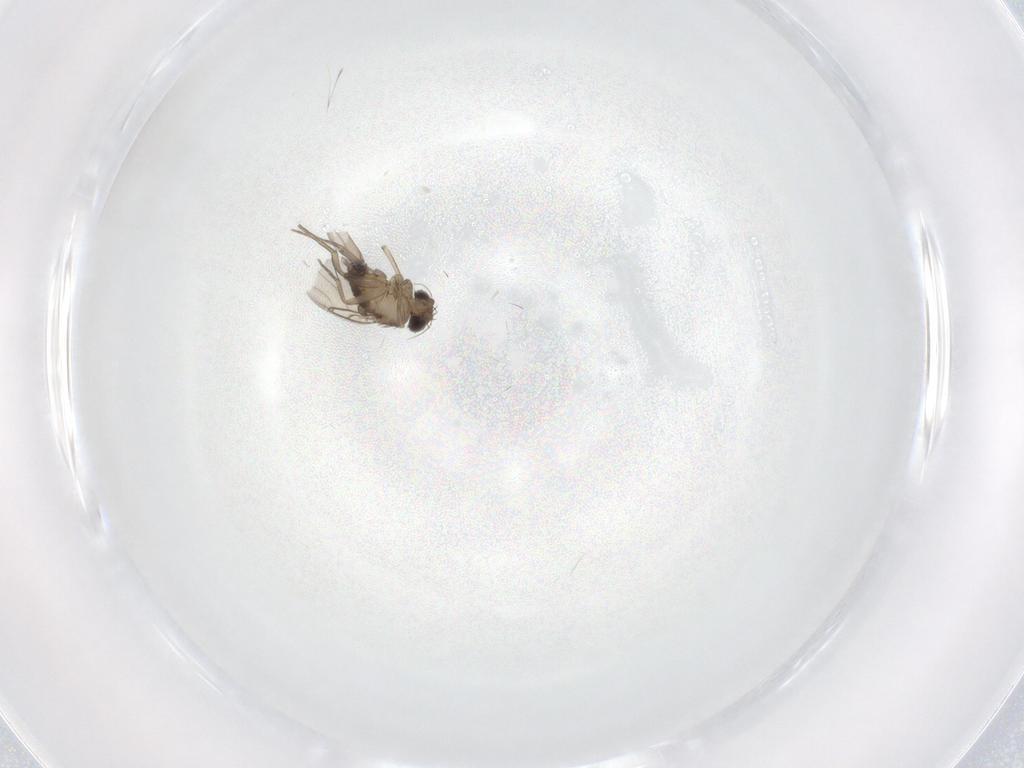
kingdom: Animalia
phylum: Arthropoda
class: Insecta
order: Diptera
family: Phoridae
